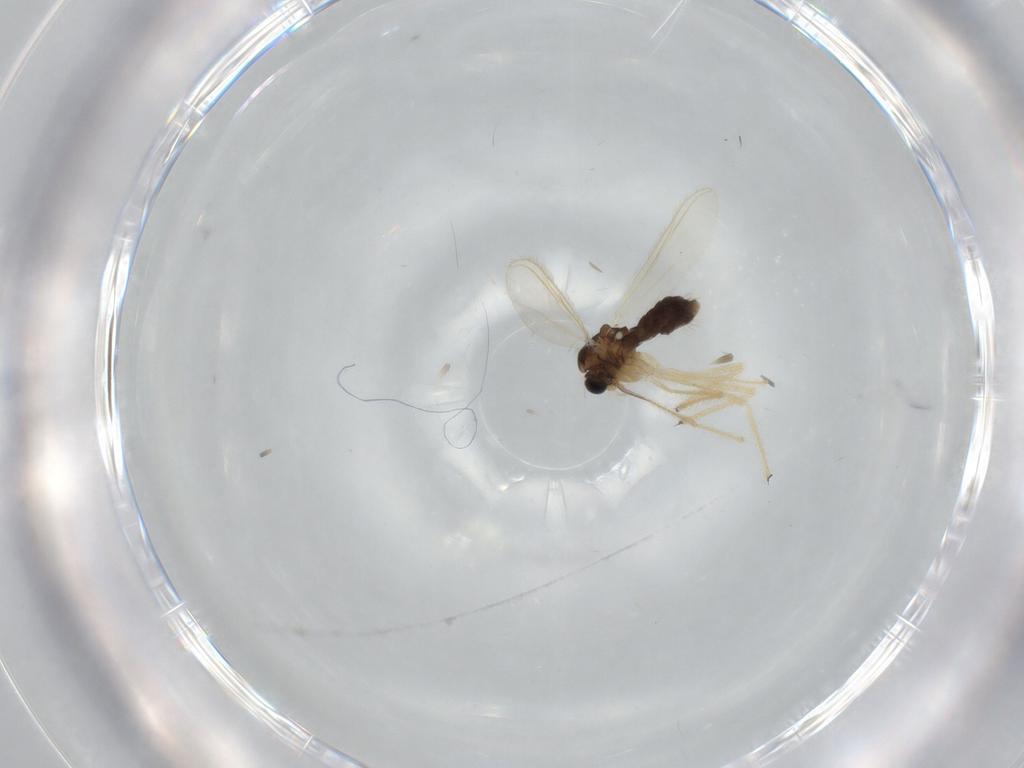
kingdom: Animalia
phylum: Arthropoda
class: Insecta
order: Diptera
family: Chironomidae
